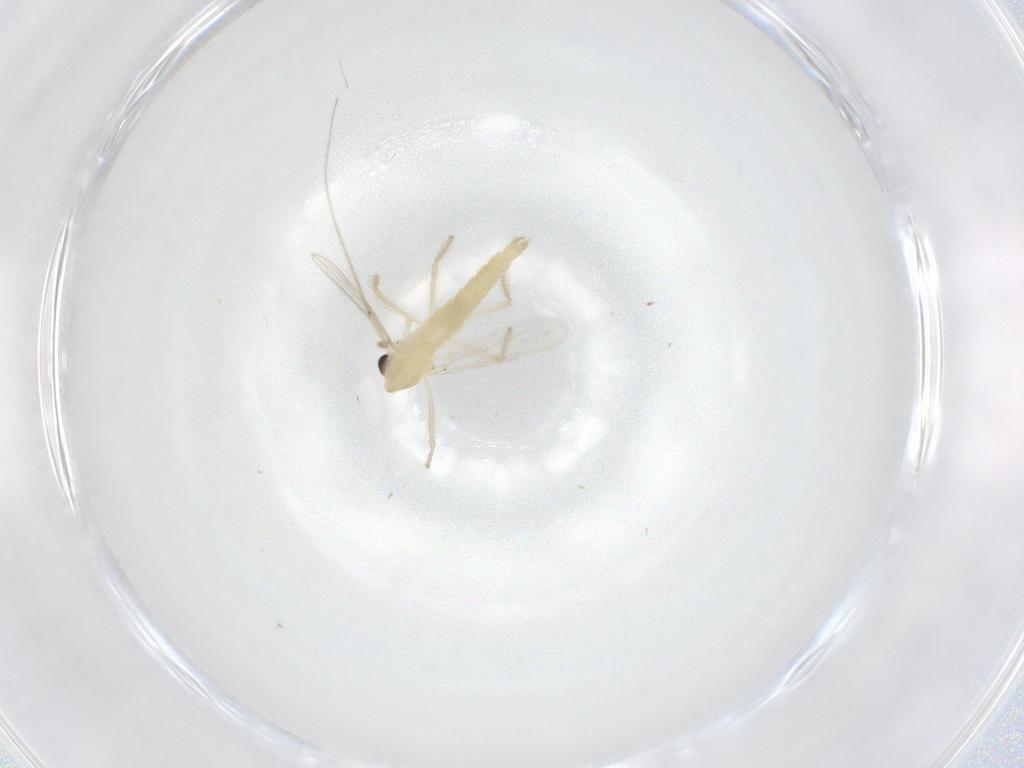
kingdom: Animalia
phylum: Arthropoda
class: Insecta
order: Diptera
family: Chironomidae
